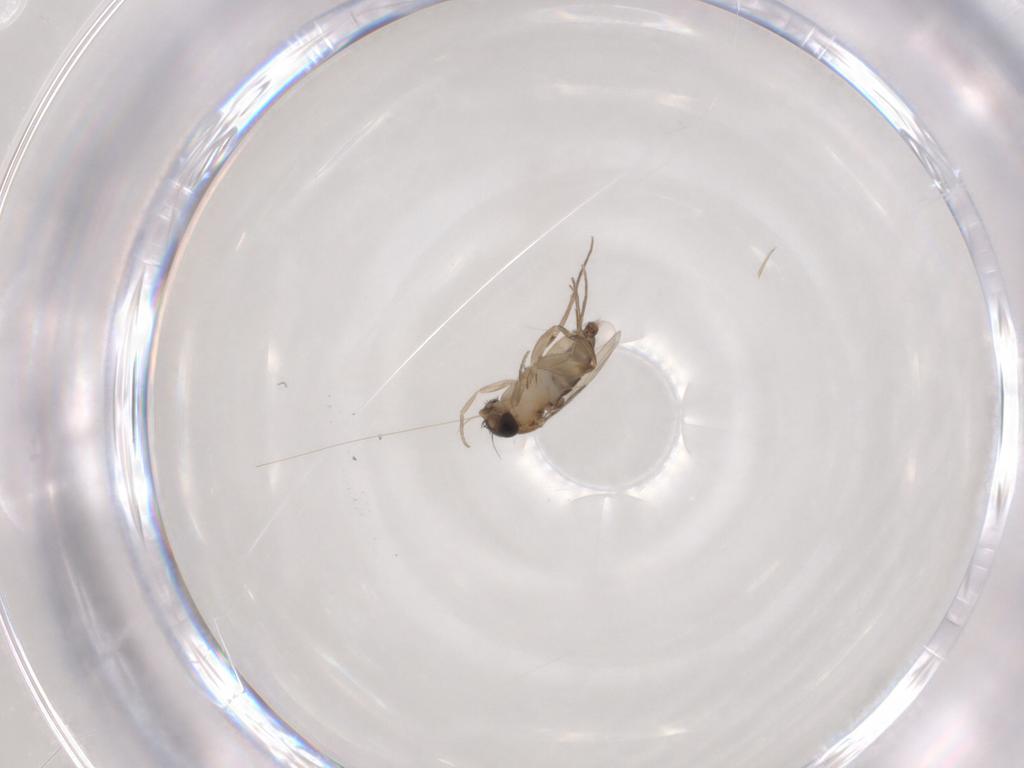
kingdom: Animalia
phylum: Arthropoda
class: Insecta
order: Diptera
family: Phoridae
